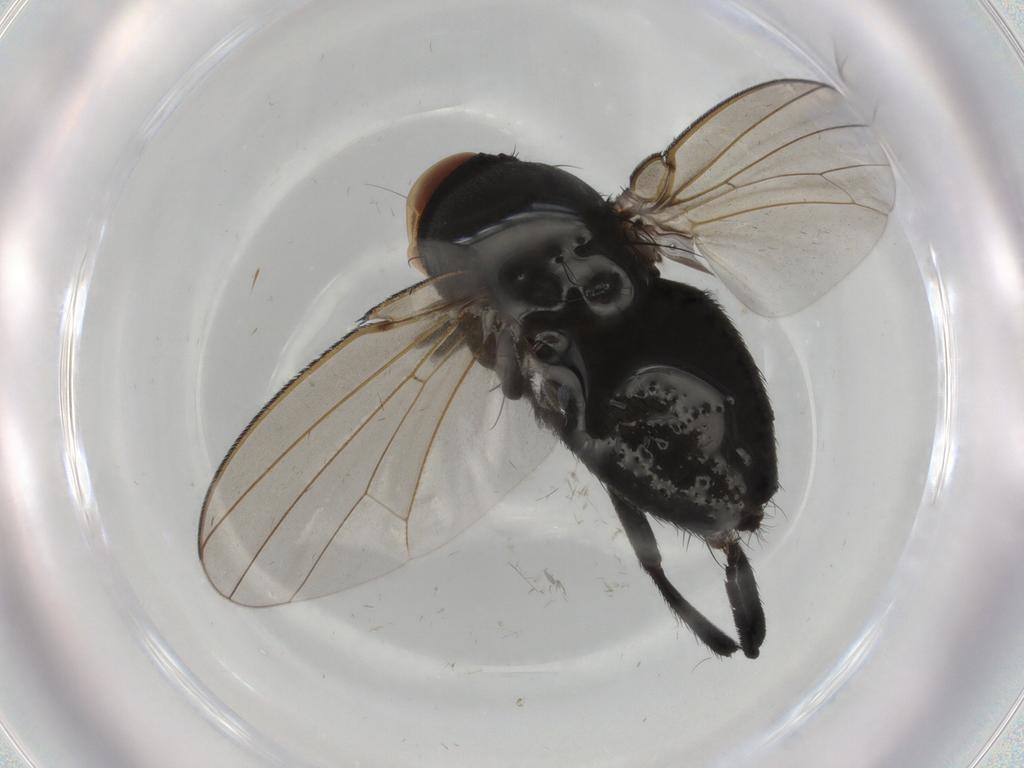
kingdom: Animalia
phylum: Arthropoda
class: Insecta
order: Diptera
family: Milichiidae
